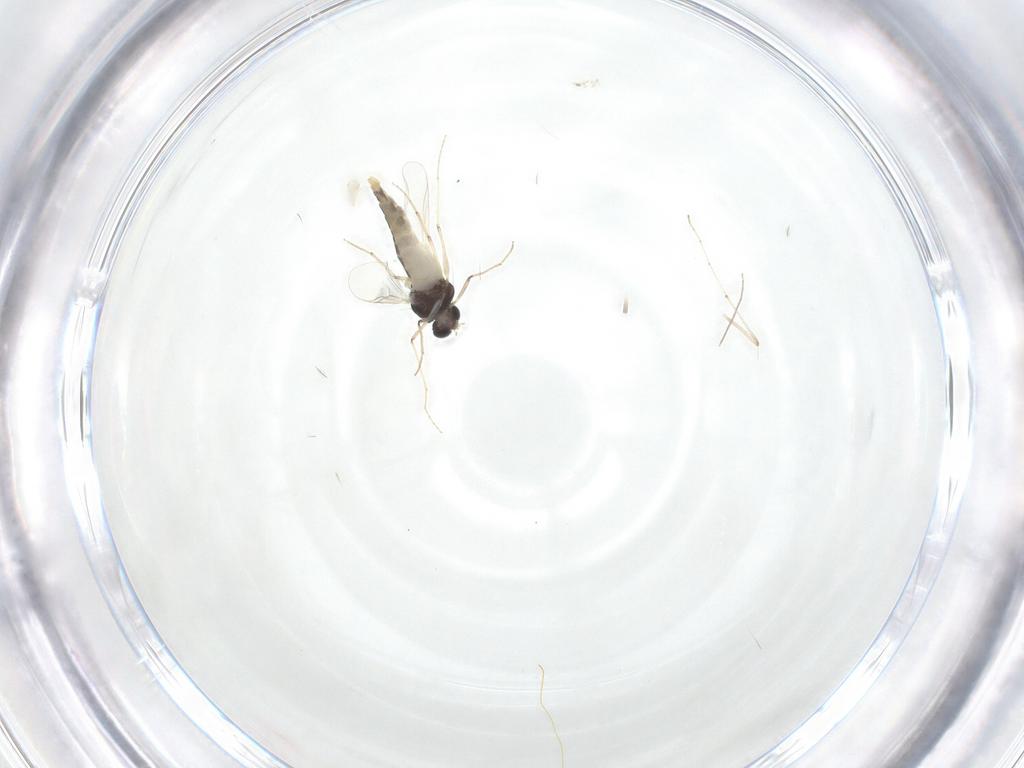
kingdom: Animalia
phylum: Arthropoda
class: Insecta
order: Diptera
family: Chironomidae
